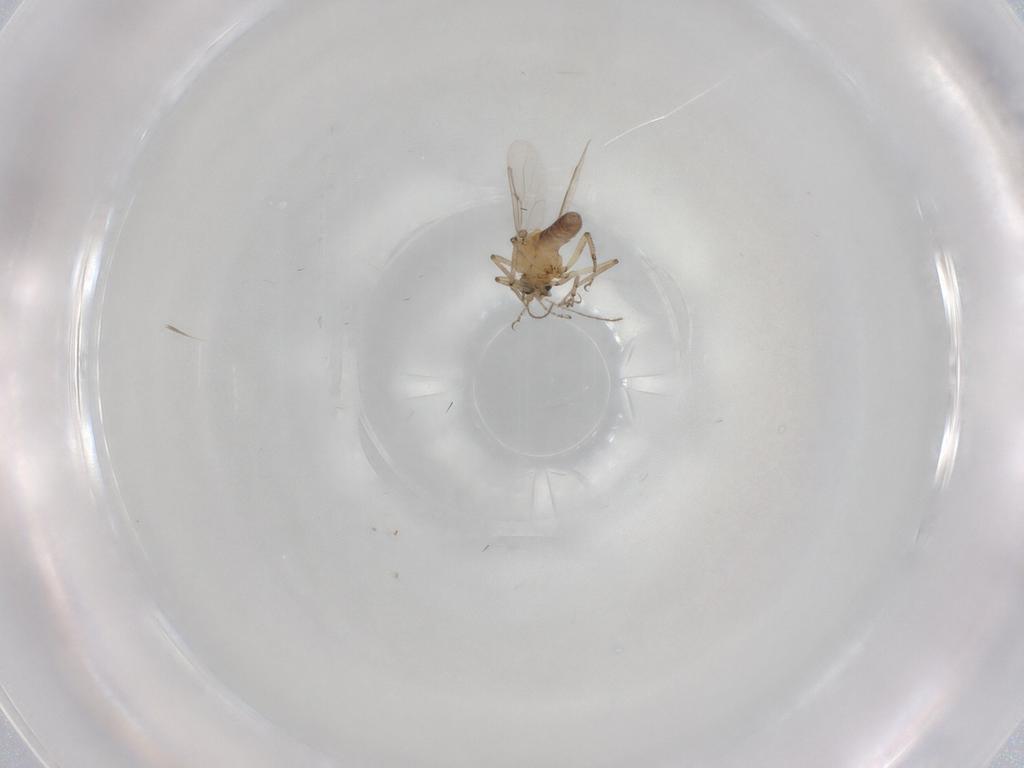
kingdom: Animalia
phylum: Arthropoda
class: Insecta
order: Diptera
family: Ceratopogonidae
